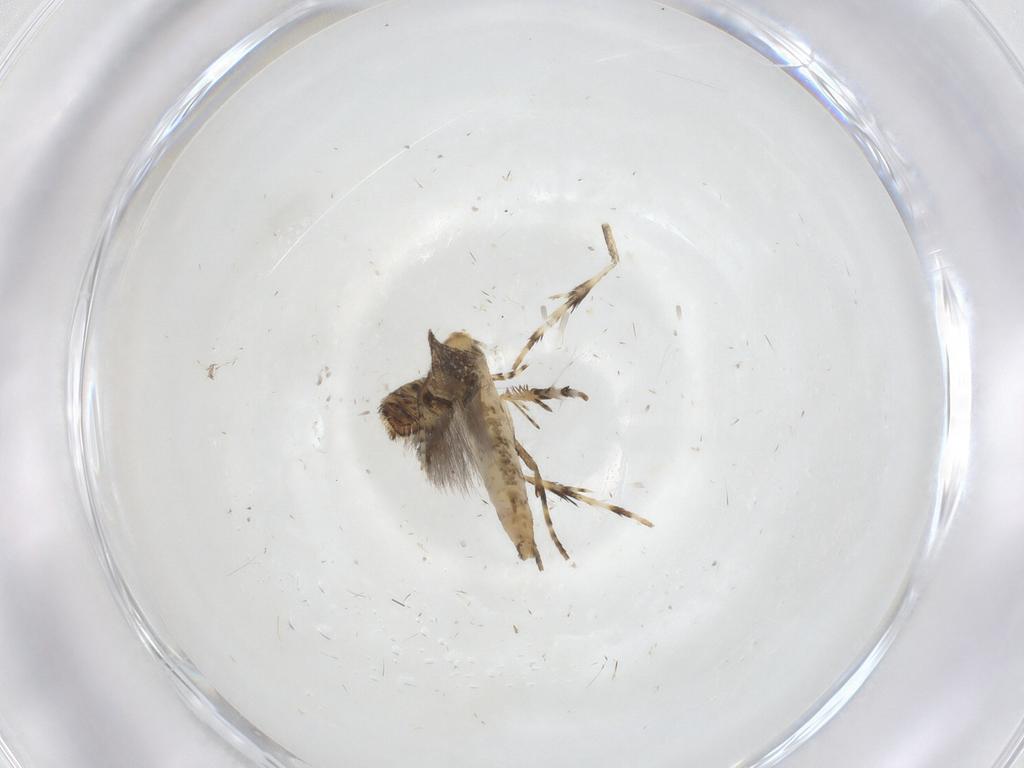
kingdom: Animalia
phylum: Arthropoda
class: Insecta
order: Lepidoptera
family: Gracillariidae
